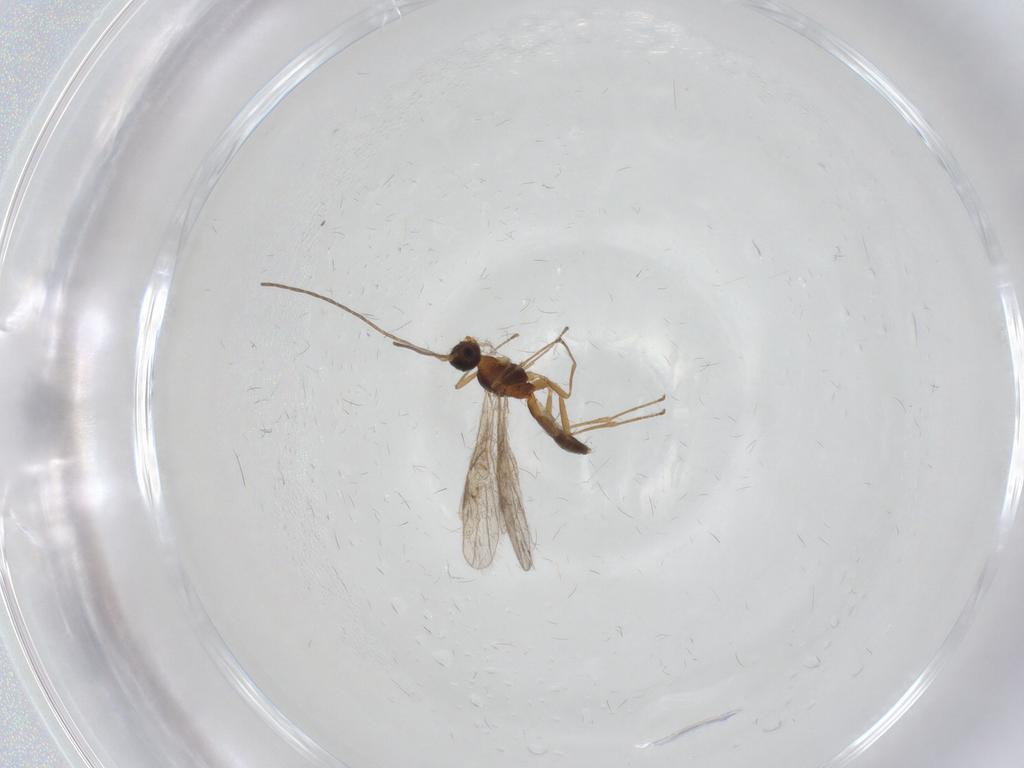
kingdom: Animalia
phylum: Arthropoda
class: Insecta
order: Hymenoptera
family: Braconidae
